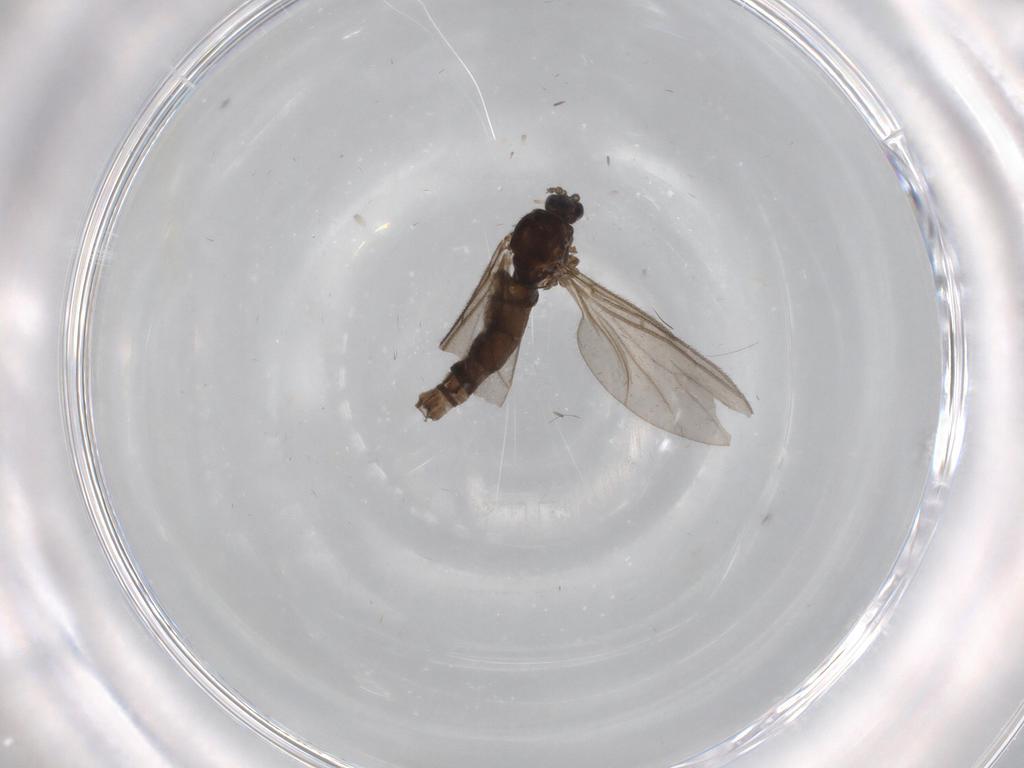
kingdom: Animalia
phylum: Arthropoda
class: Insecta
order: Diptera
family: Sciaridae
